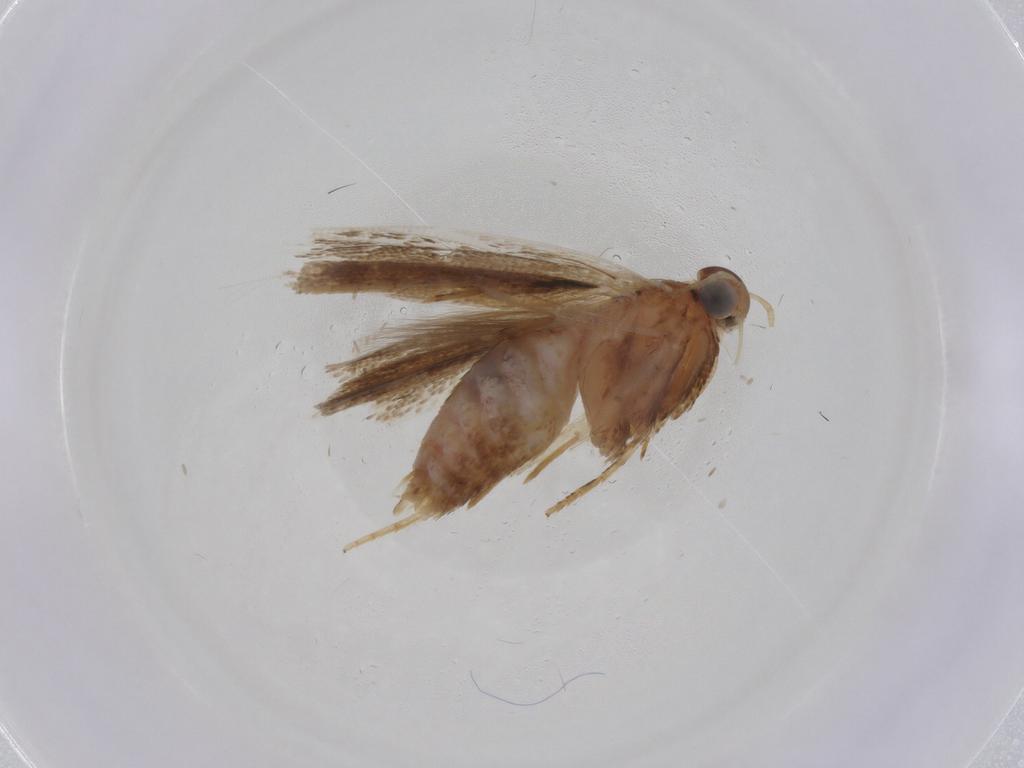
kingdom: Animalia
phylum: Arthropoda
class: Insecta
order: Lepidoptera
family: Gelechiidae
